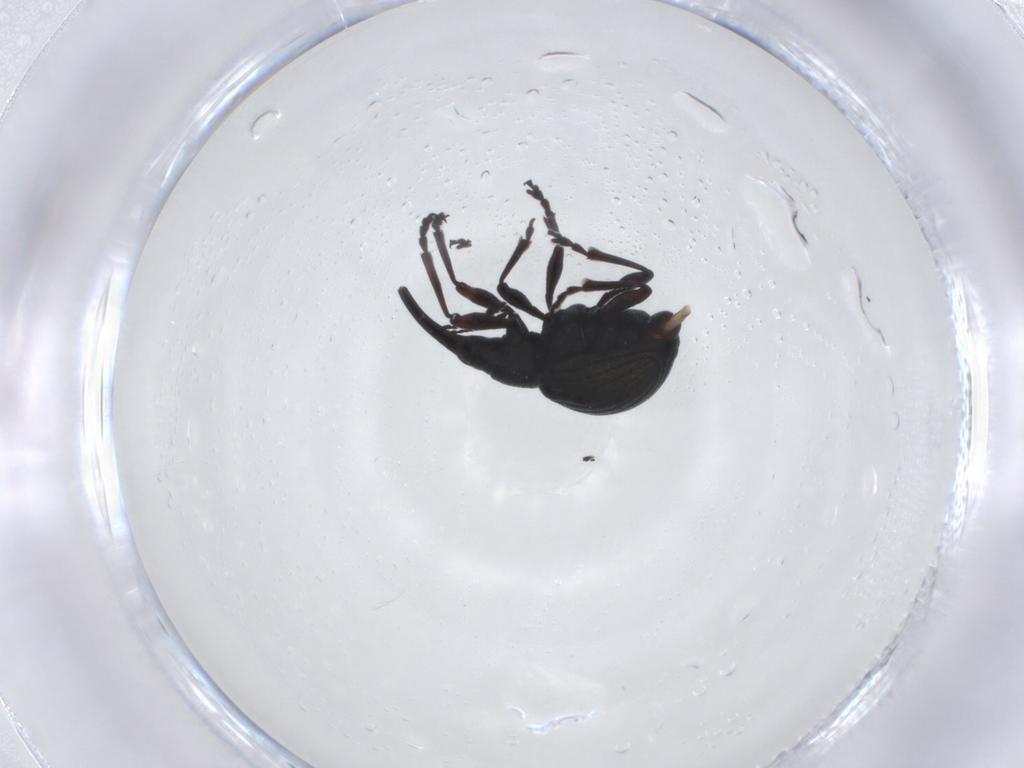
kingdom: Animalia
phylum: Arthropoda
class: Insecta
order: Coleoptera
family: Brentidae
